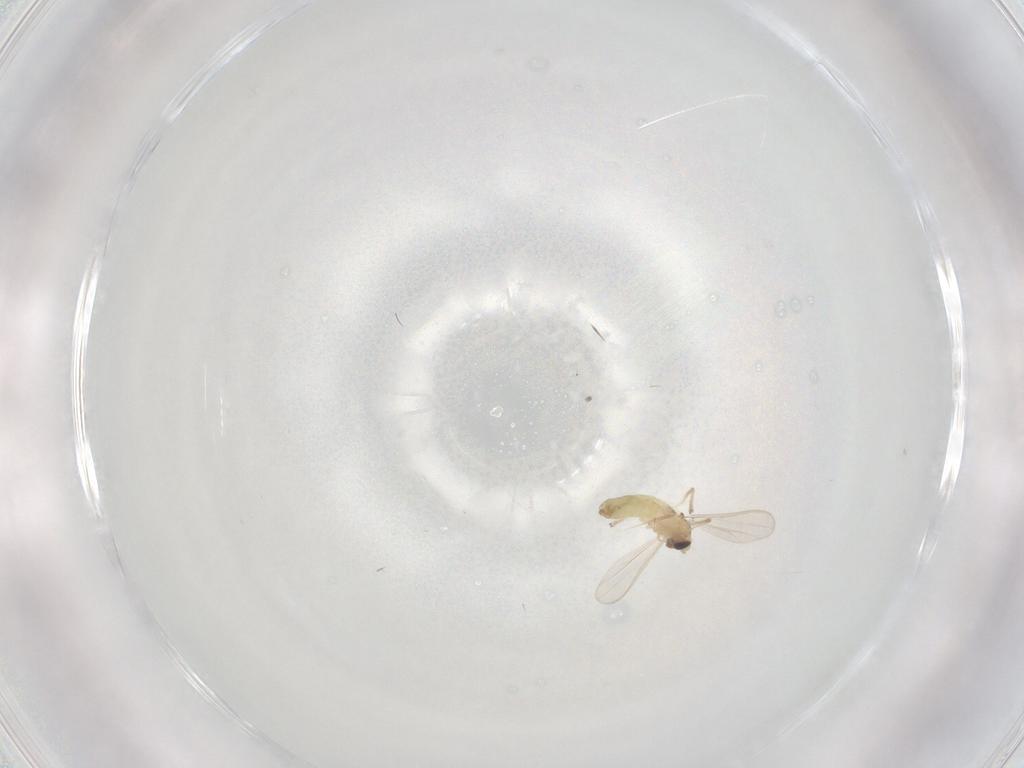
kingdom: Animalia
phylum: Arthropoda
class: Insecta
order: Diptera
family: Chironomidae
